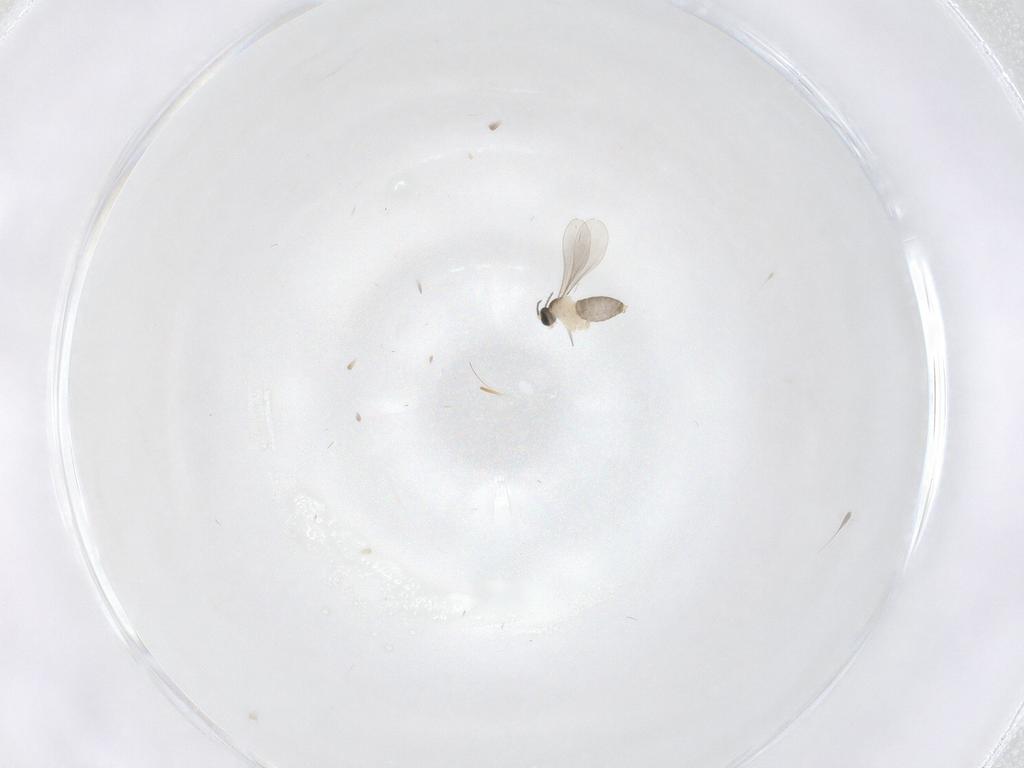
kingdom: Animalia
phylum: Arthropoda
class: Insecta
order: Diptera
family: Cecidomyiidae
